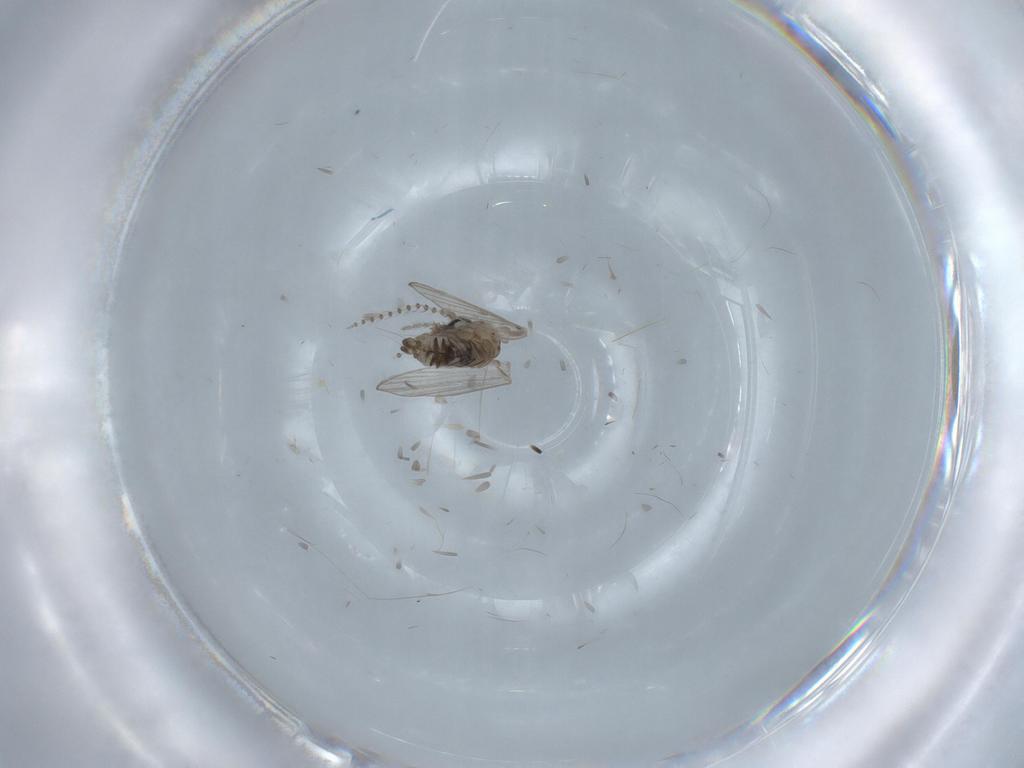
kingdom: Animalia
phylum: Arthropoda
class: Insecta
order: Diptera
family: Psychodidae
